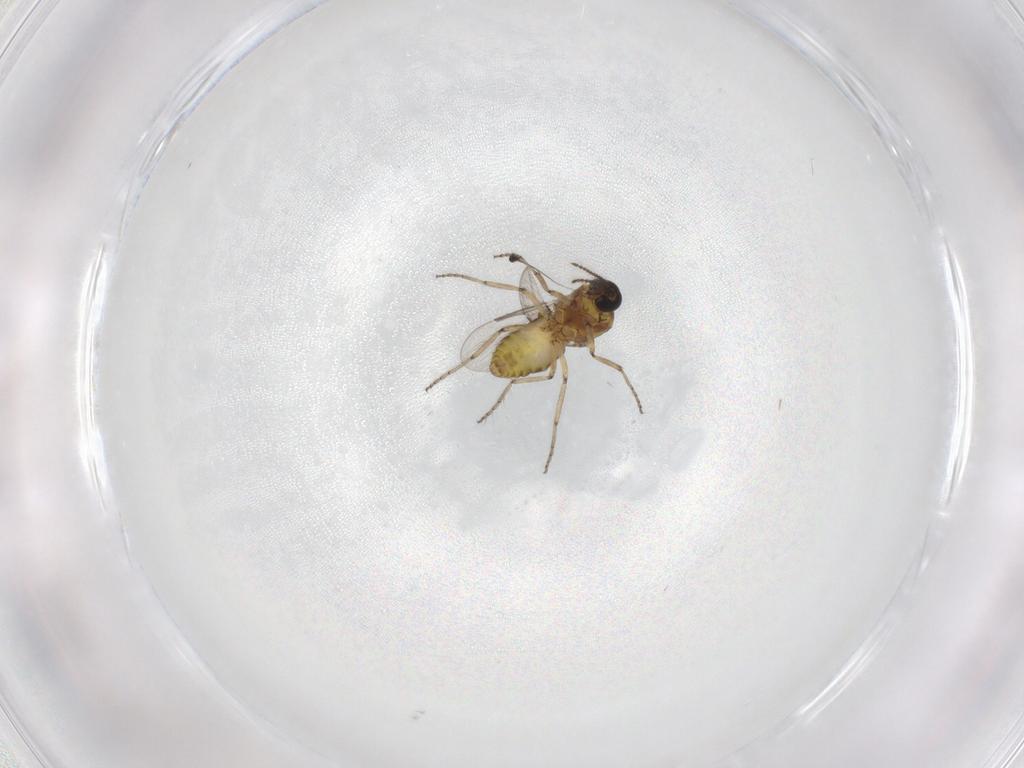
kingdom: Animalia
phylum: Arthropoda
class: Insecta
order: Diptera
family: Ceratopogonidae
